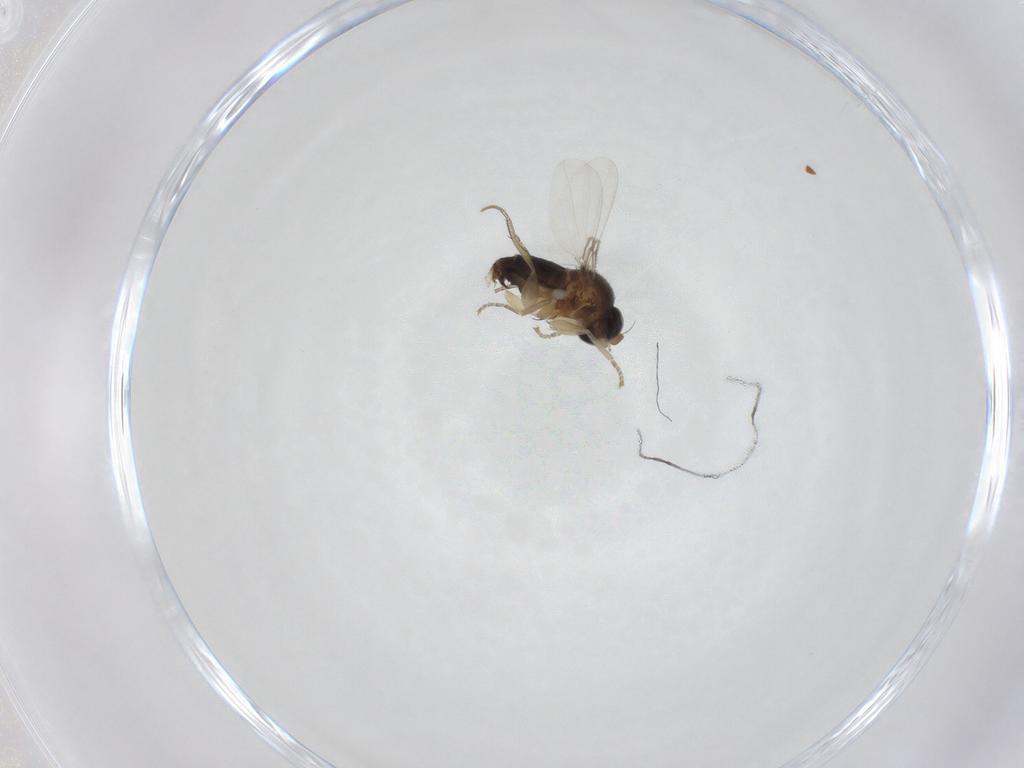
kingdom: Animalia
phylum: Arthropoda
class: Insecta
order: Diptera
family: Phoridae
